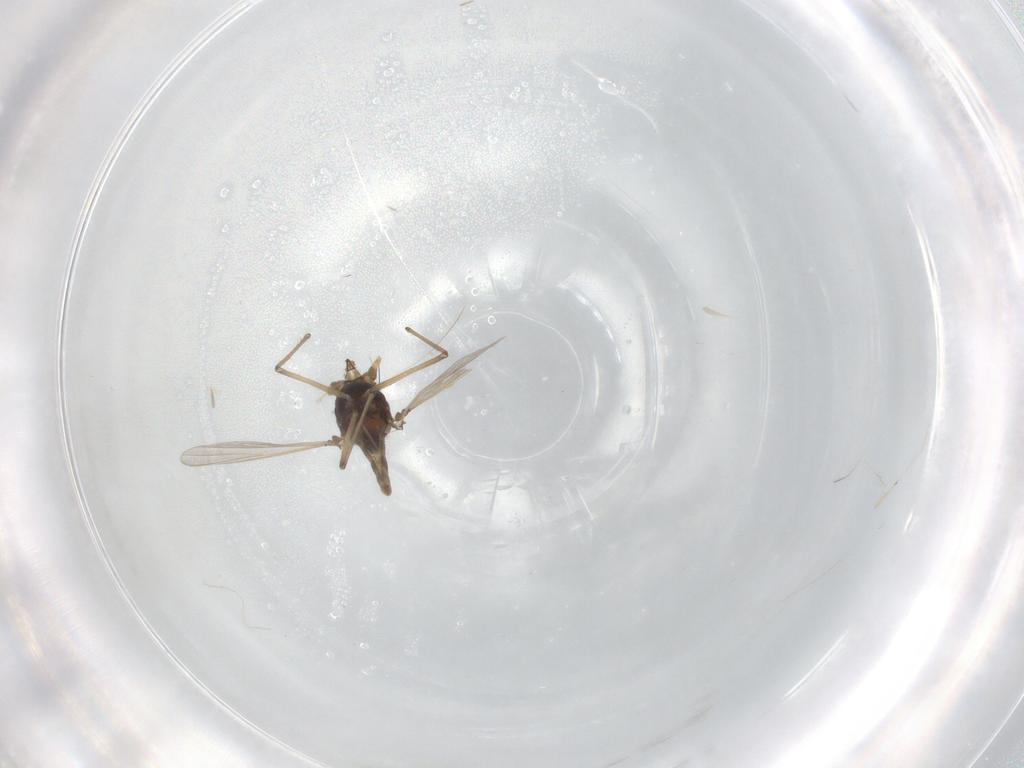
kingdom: Animalia
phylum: Arthropoda
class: Insecta
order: Diptera
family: Chironomidae
